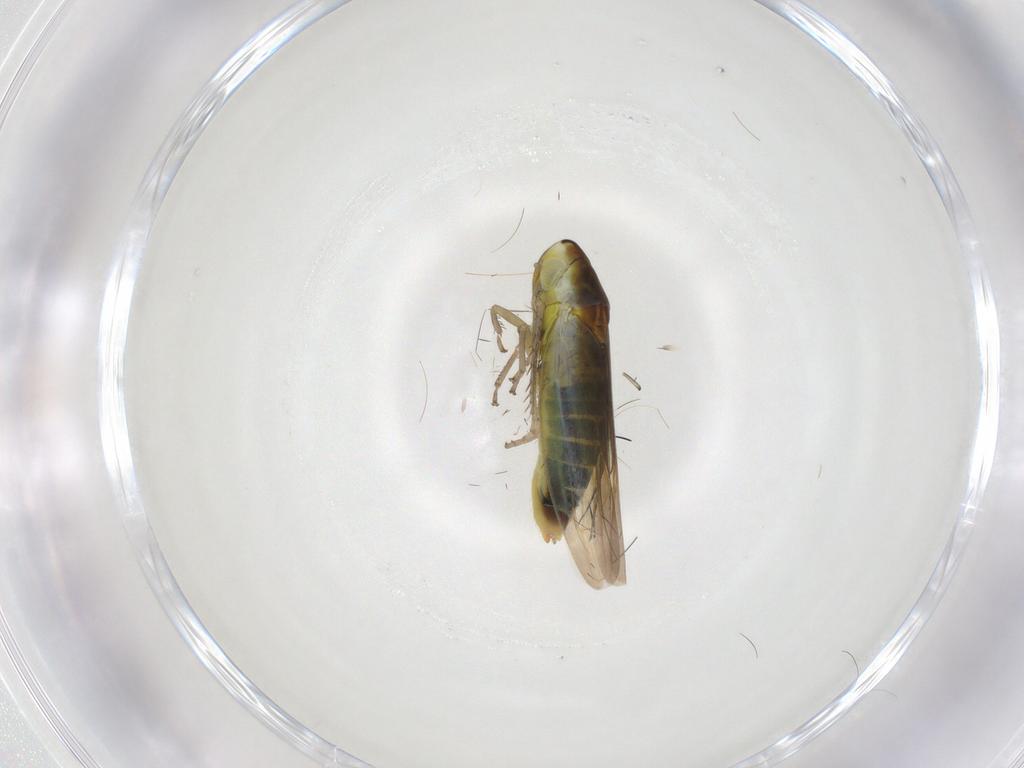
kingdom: Animalia
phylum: Arthropoda
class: Insecta
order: Hemiptera
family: Cicadellidae
